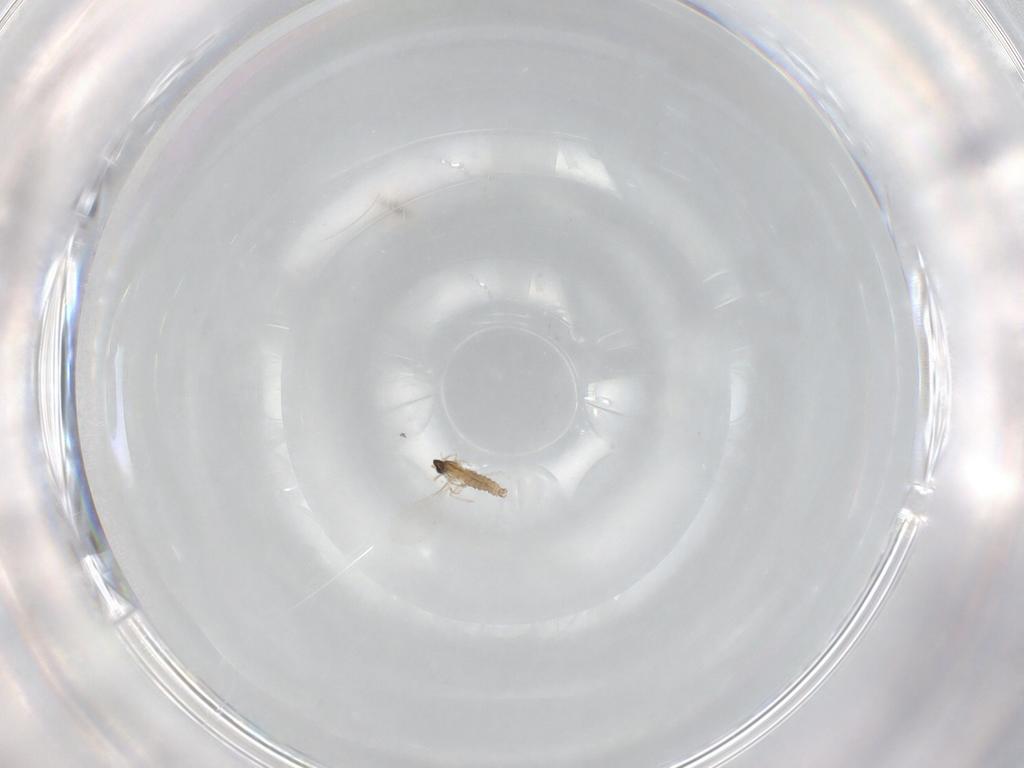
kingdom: Animalia
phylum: Arthropoda
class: Insecta
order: Diptera
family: Cecidomyiidae
